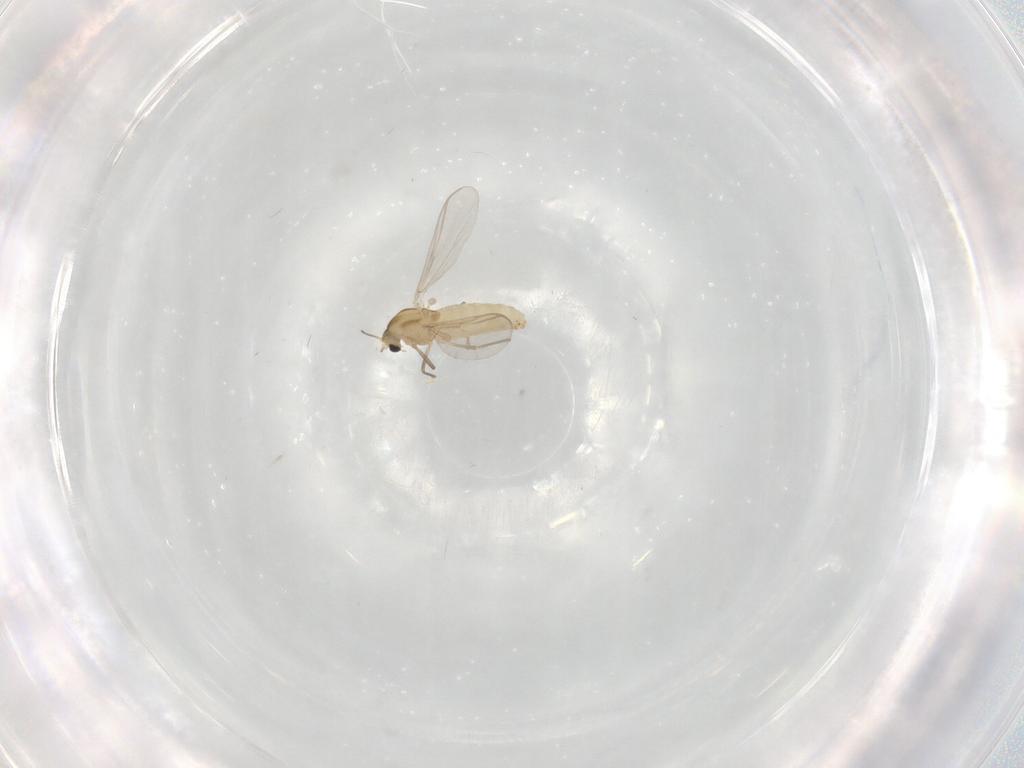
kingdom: Animalia
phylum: Arthropoda
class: Insecta
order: Diptera
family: Chironomidae
